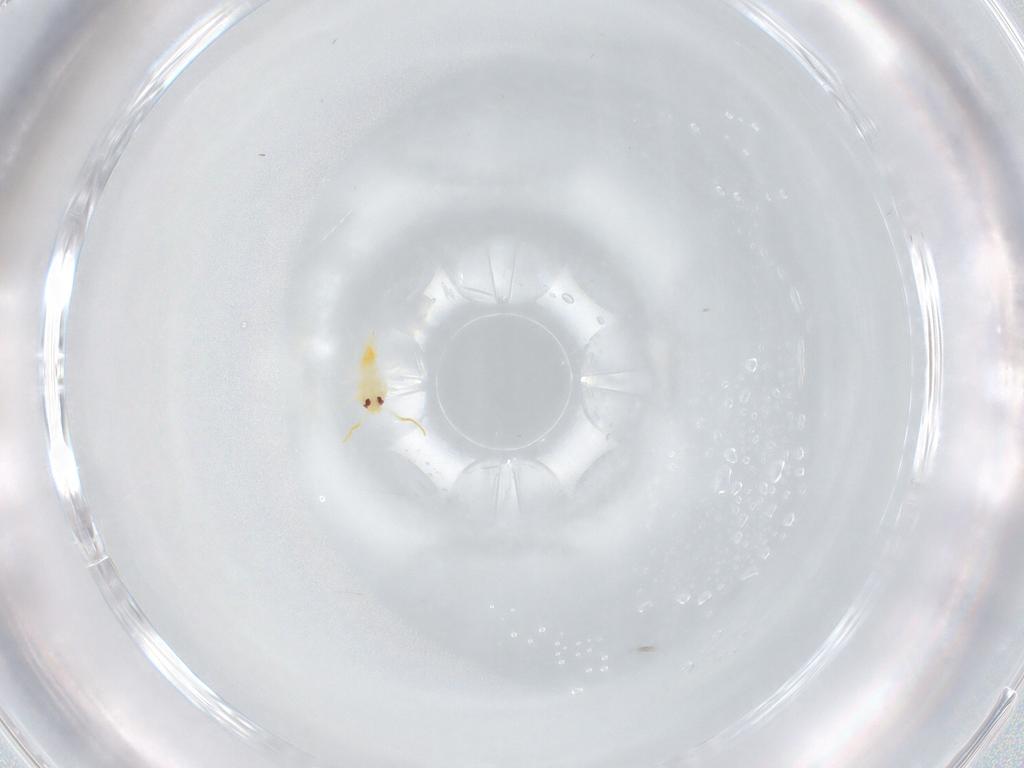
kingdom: Animalia
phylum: Arthropoda
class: Insecta
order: Hemiptera
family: Aleyrodidae
